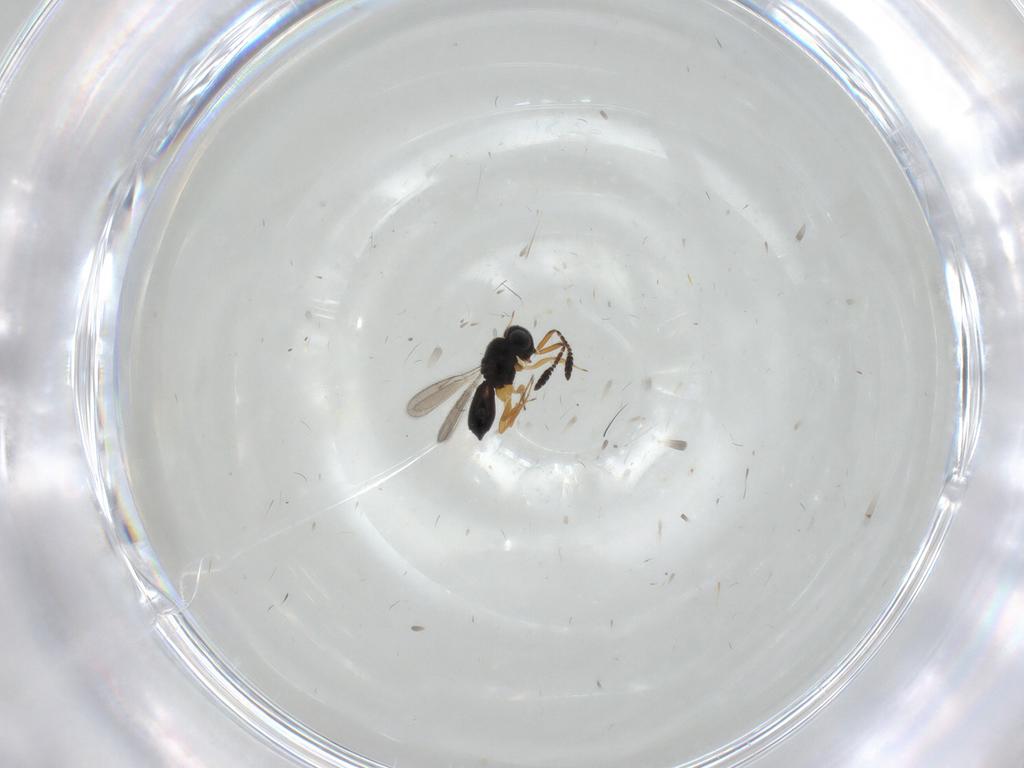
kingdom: Animalia
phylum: Arthropoda
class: Insecta
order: Hymenoptera
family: Scelionidae
